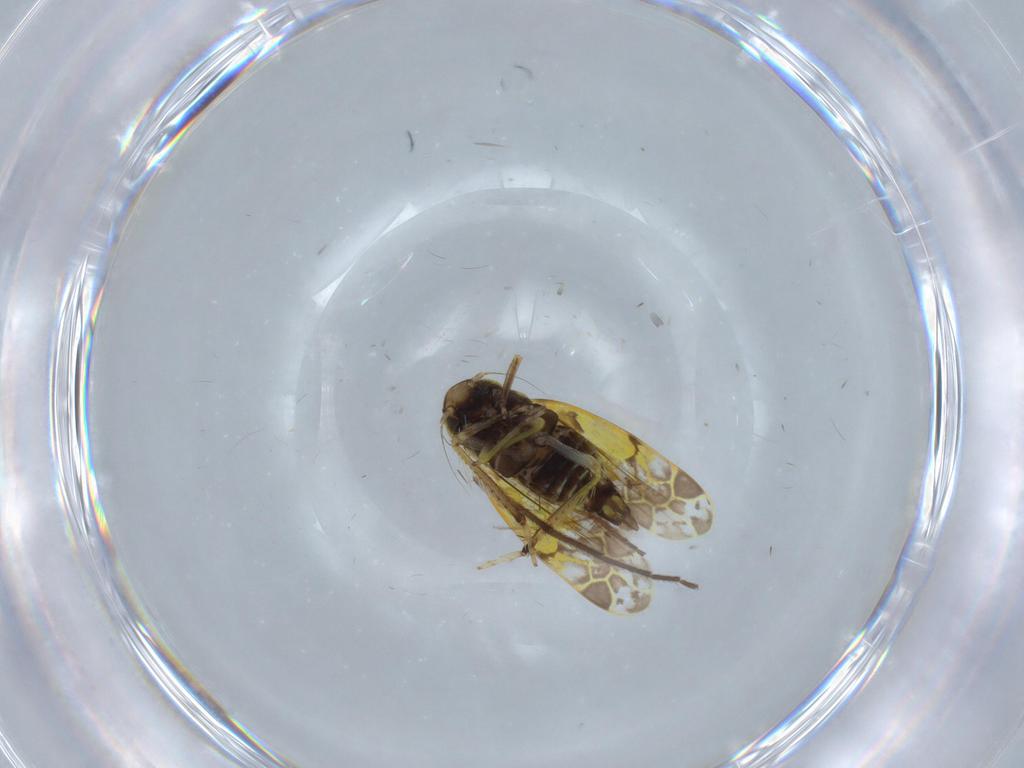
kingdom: Animalia
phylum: Arthropoda
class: Insecta
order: Hemiptera
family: Cicadellidae
